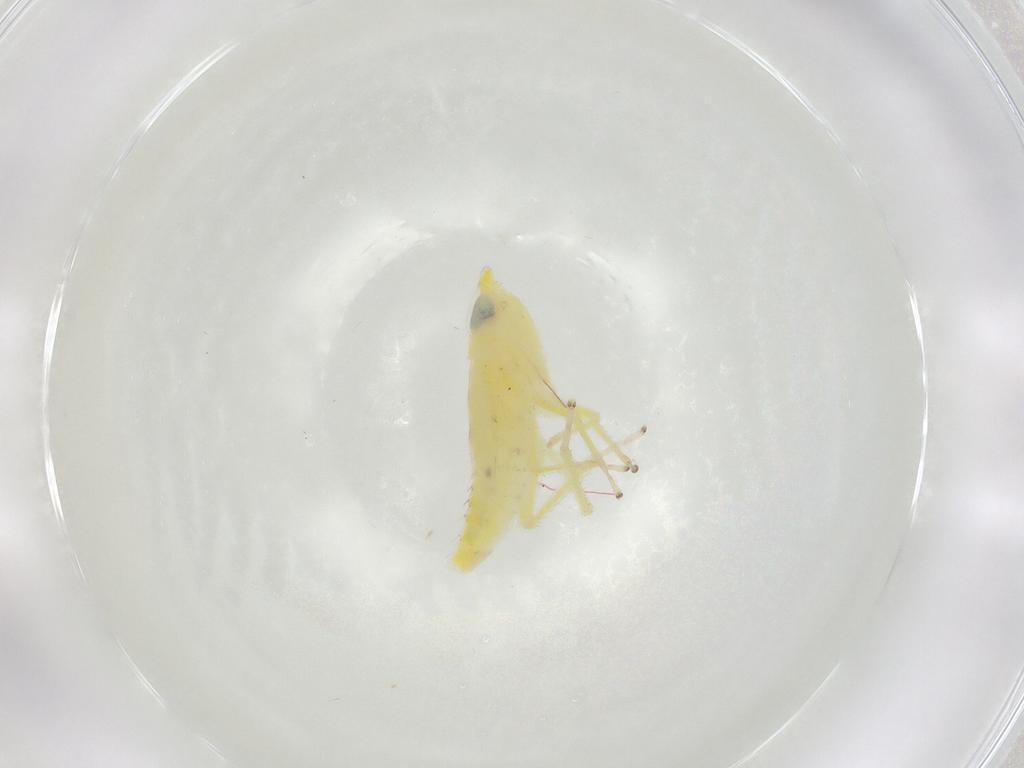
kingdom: Animalia
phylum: Arthropoda
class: Insecta
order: Hemiptera
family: Cicadellidae
